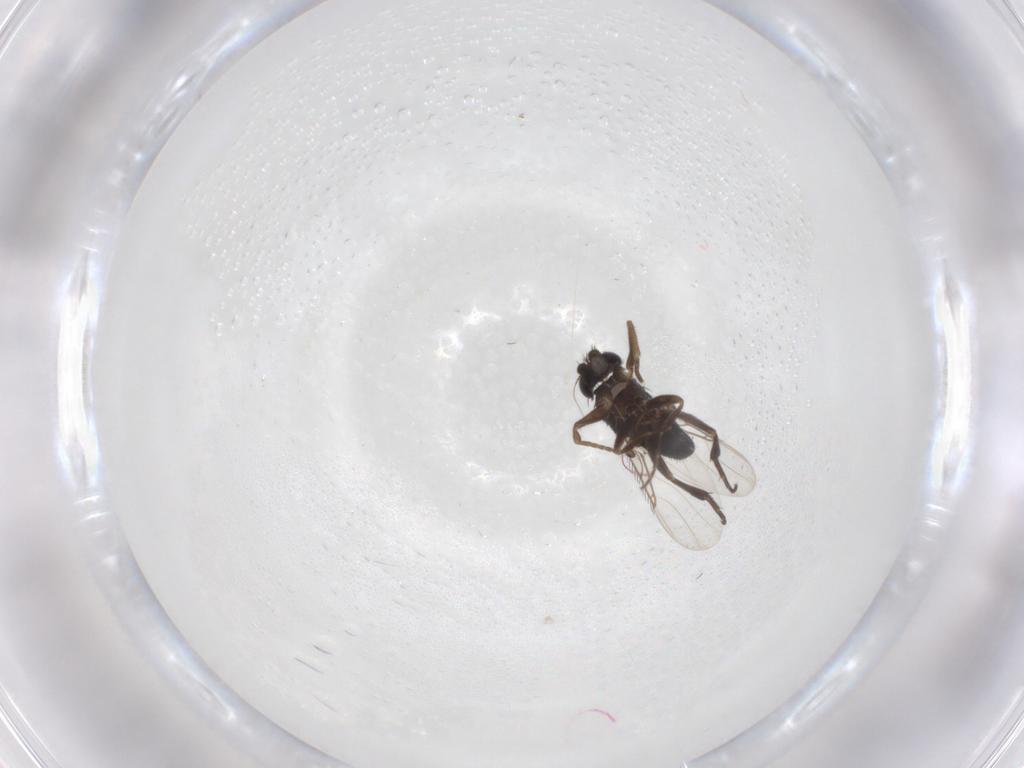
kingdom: Animalia
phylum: Arthropoda
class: Insecta
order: Diptera
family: Phoridae
